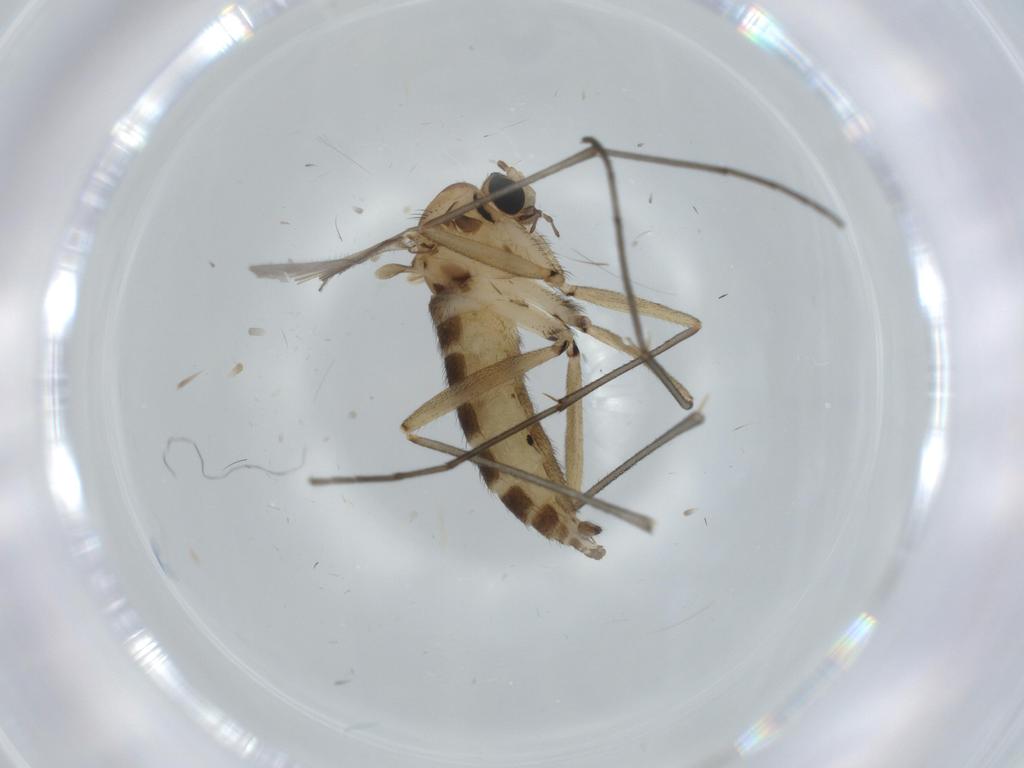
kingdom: Animalia
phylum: Arthropoda
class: Insecta
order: Diptera
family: Sciaridae
